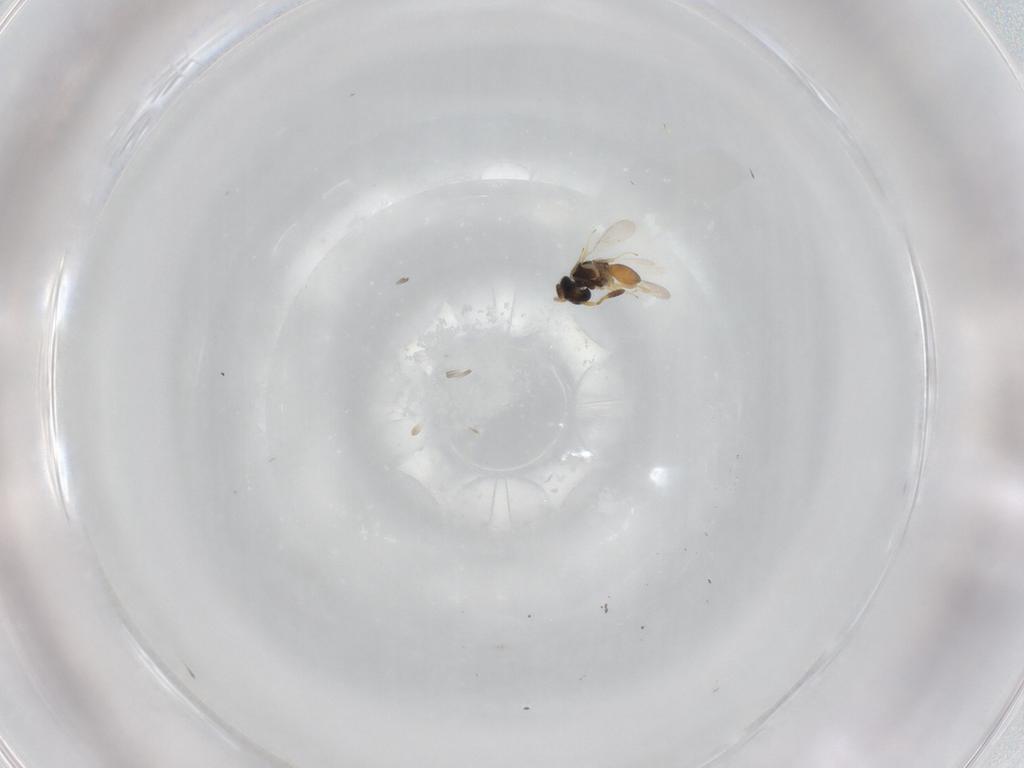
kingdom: Animalia
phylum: Arthropoda
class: Insecta
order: Hymenoptera
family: Scelionidae
